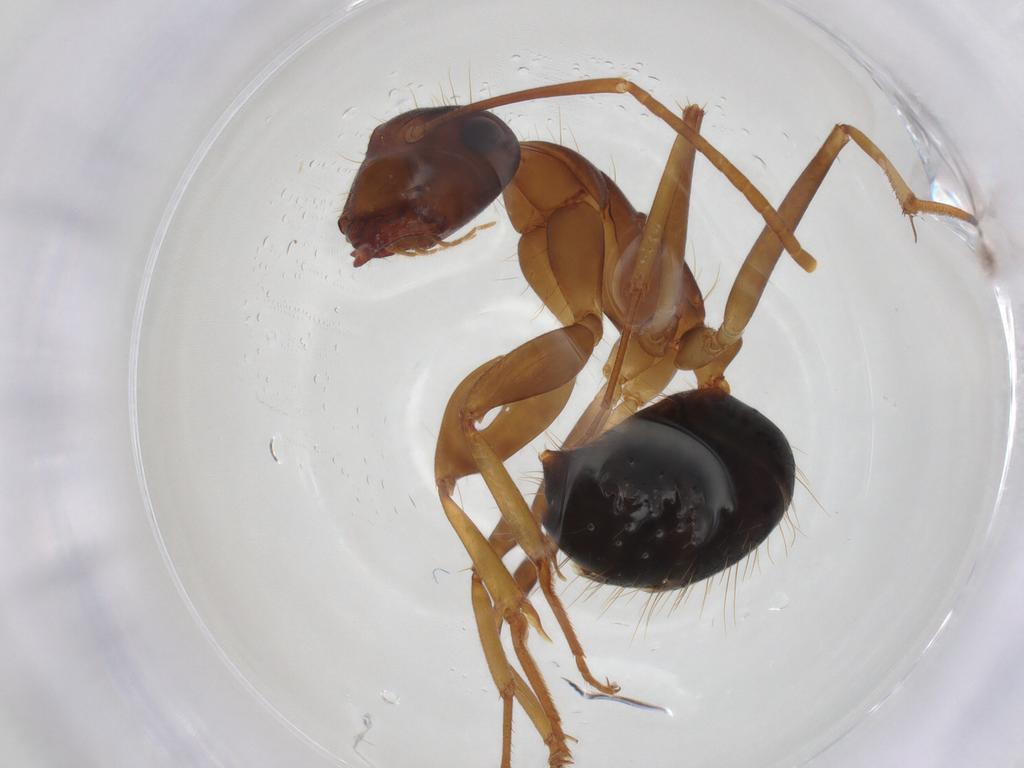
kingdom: Animalia
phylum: Arthropoda
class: Insecta
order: Hymenoptera
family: Formicidae
